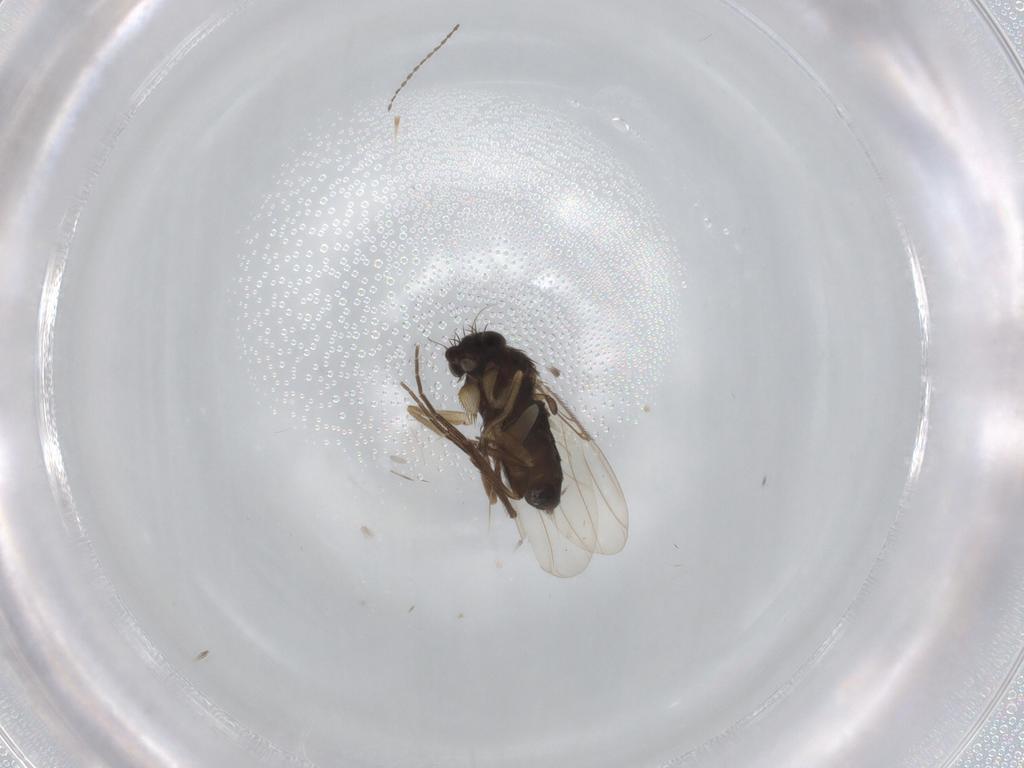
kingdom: Animalia
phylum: Arthropoda
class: Insecta
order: Diptera
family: Phoridae
